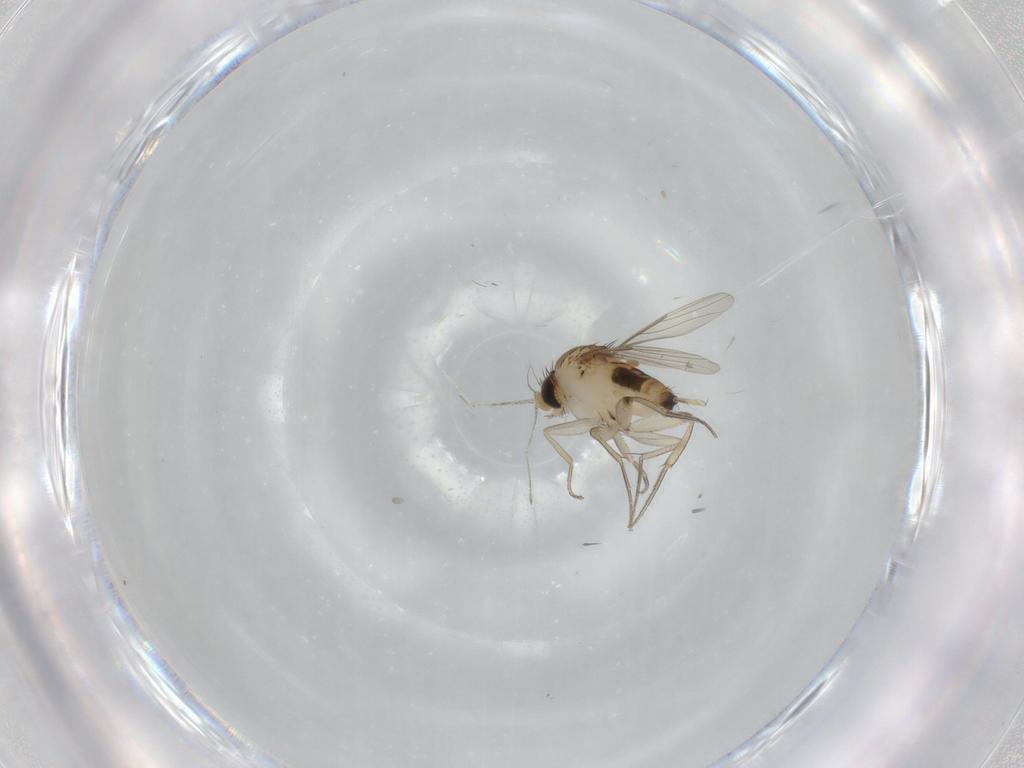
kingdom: Animalia
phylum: Arthropoda
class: Insecta
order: Diptera
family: Phoridae
